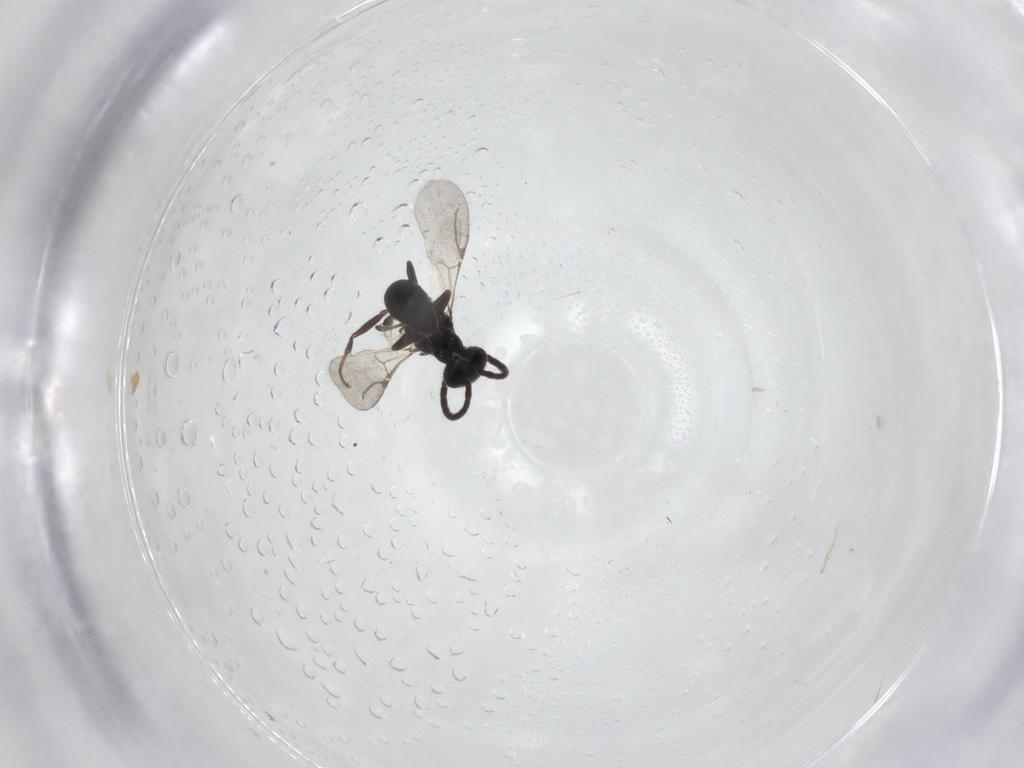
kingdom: Animalia
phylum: Arthropoda
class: Insecta
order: Hymenoptera
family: Bethylidae
